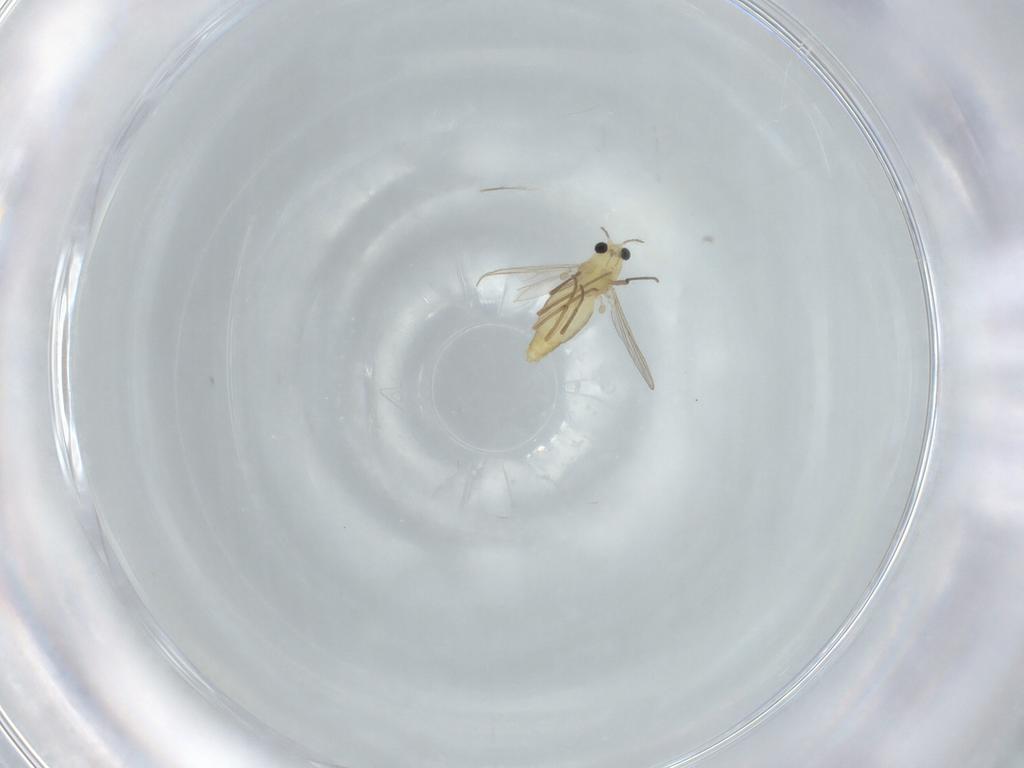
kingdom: Animalia
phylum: Arthropoda
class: Insecta
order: Diptera
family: Chironomidae
